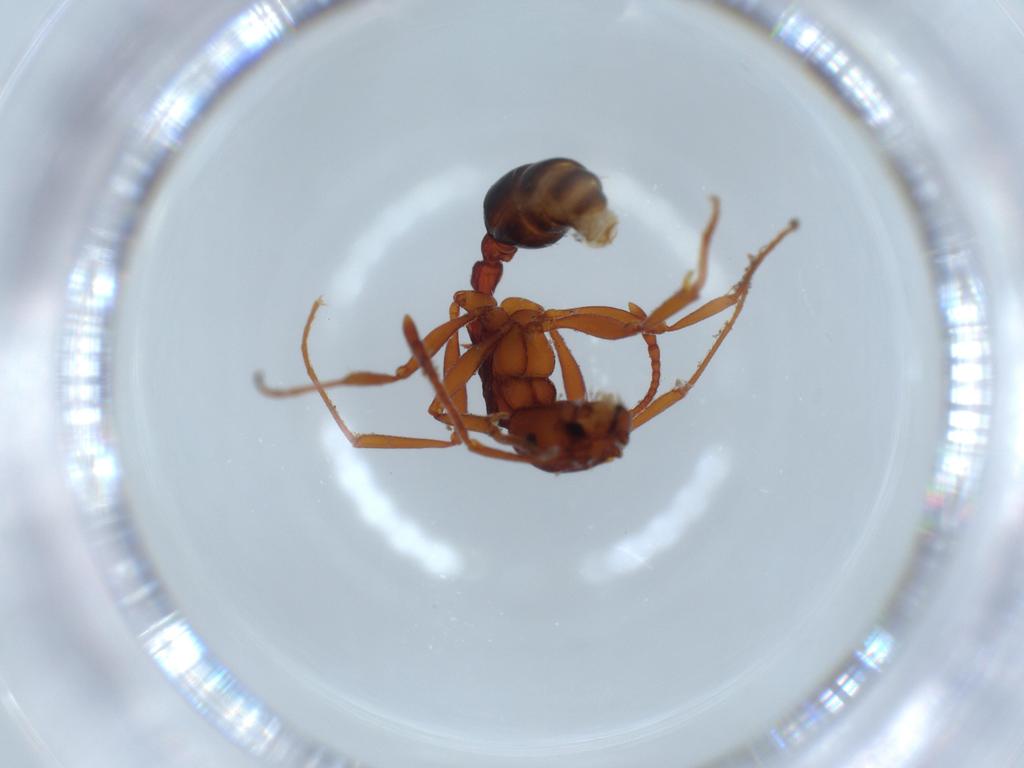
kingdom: Animalia
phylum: Arthropoda
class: Insecta
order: Hymenoptera
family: Formicidae
